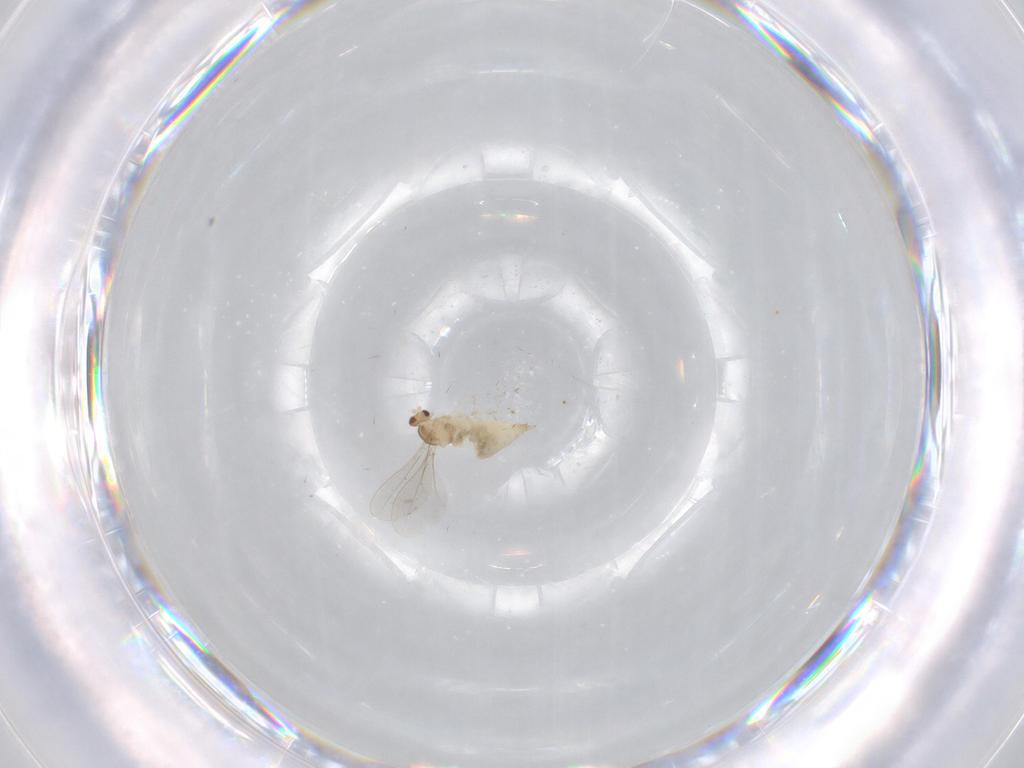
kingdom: Animalia
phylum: Arthropoda
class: Insecta
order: Diptera
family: Cecidomyiidae
